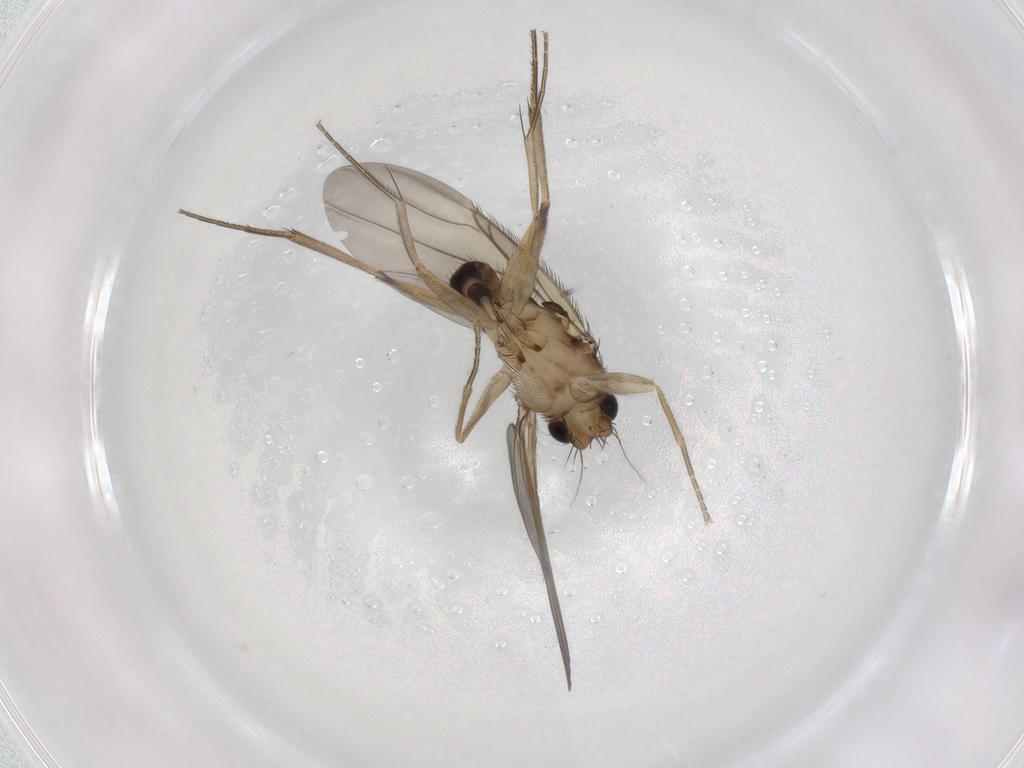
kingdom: Animalia
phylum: Arthropoda
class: Insecta
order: Diptera
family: Phoridae
